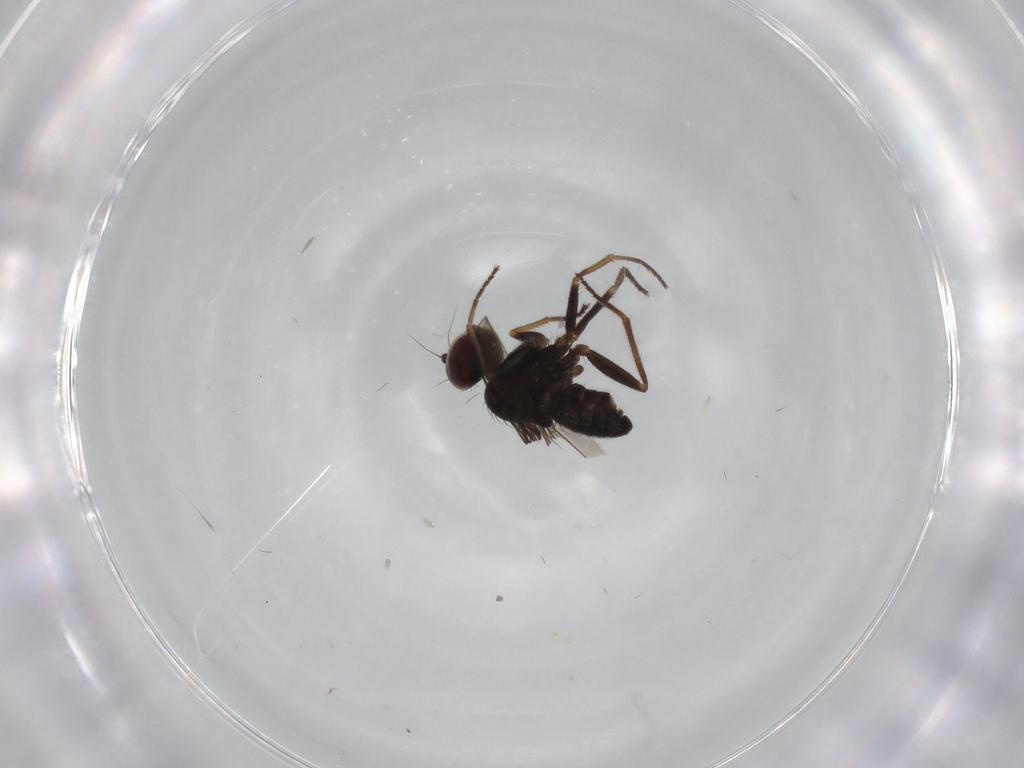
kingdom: Animalia
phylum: Arthropoda
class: Insecta
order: Diptera
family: Dolichopodidae
